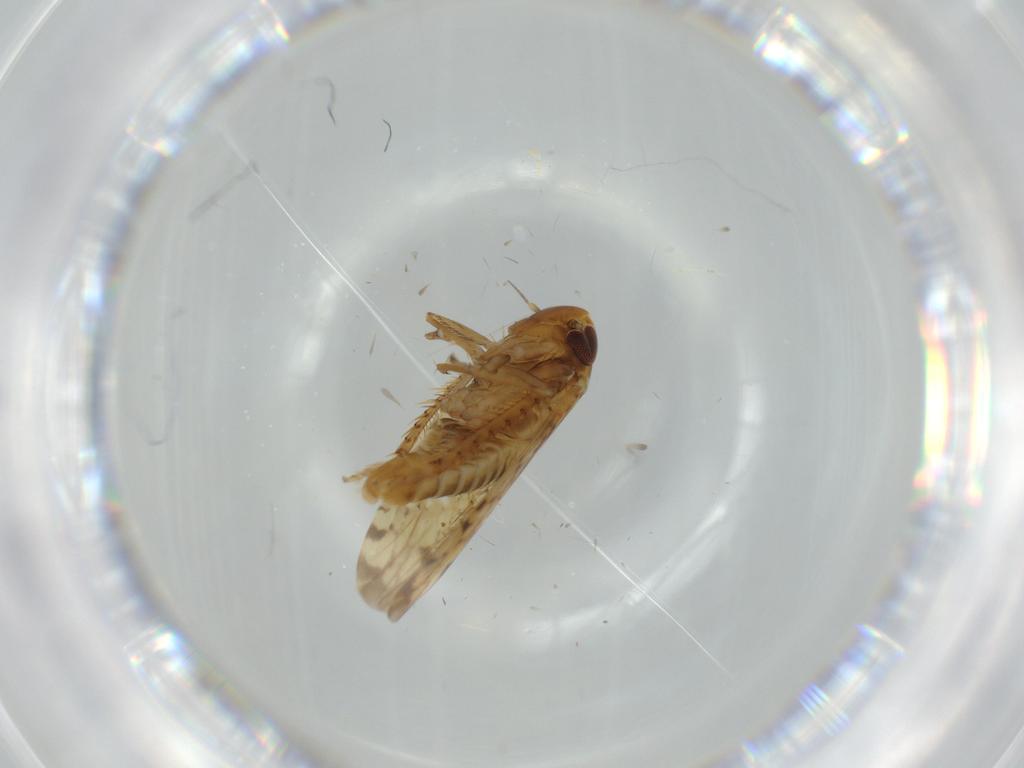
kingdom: Animalia
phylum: Arthropoda
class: Insecta
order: Hemiptera
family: Cicadellidae
